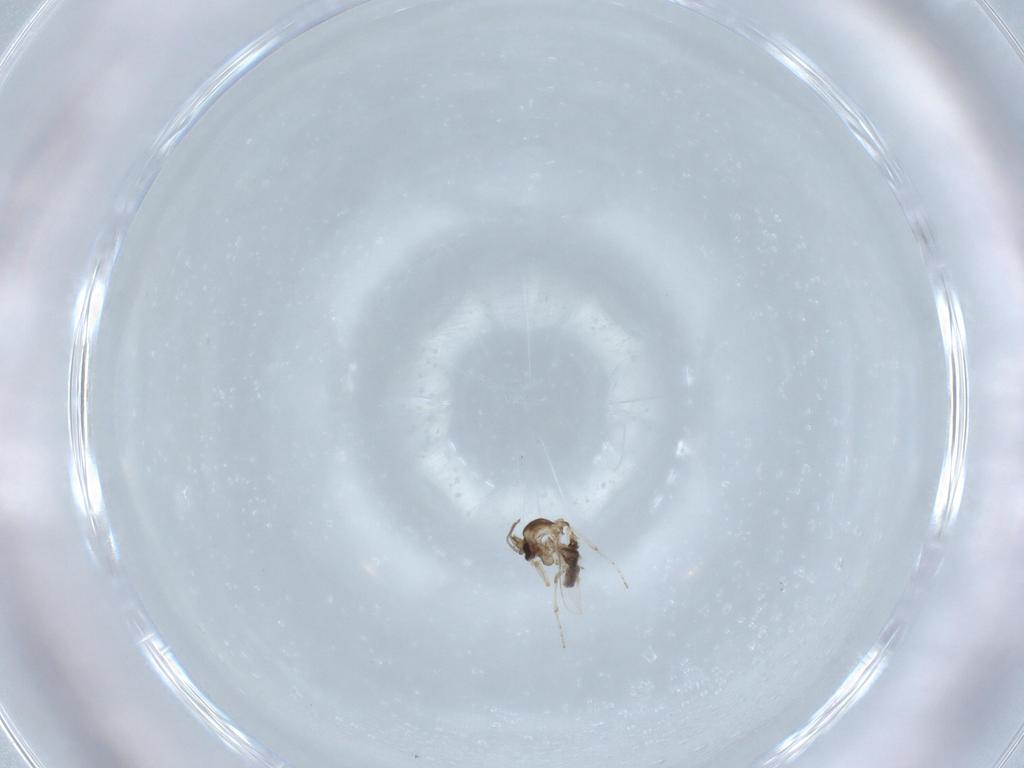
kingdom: Animalia
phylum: Arthropoda
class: Insecta
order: Diptera
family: Ceratopogonidae
